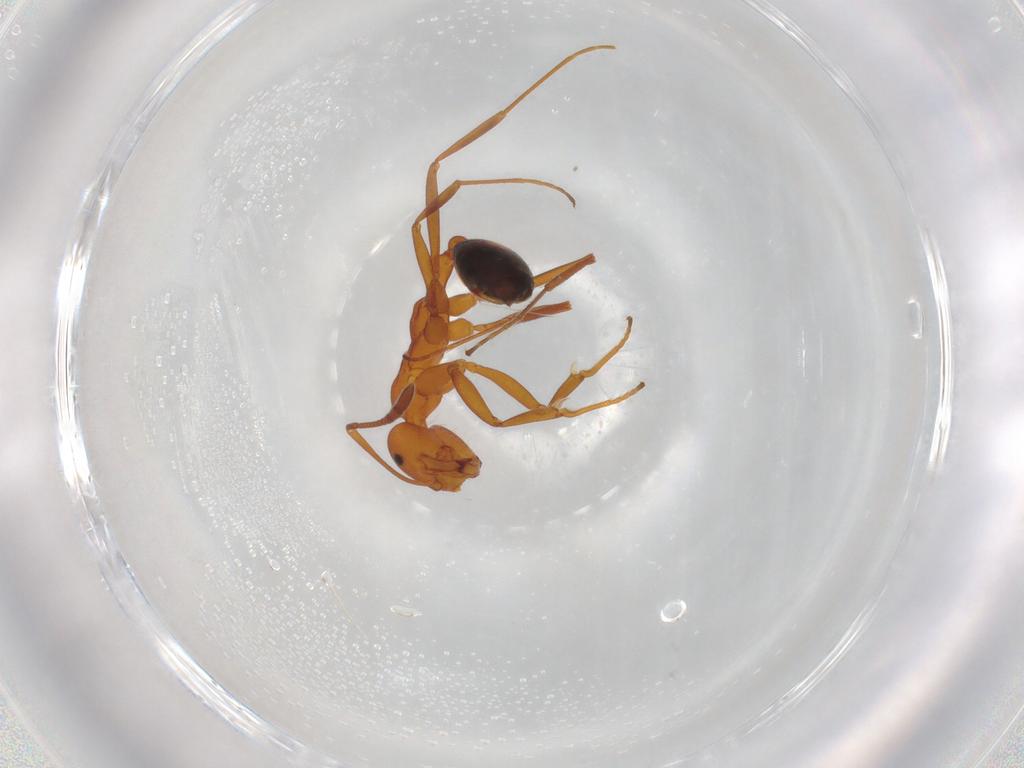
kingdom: Animalia
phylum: Arthropoda
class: Insecta
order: Hymenoptera
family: Formicidae
